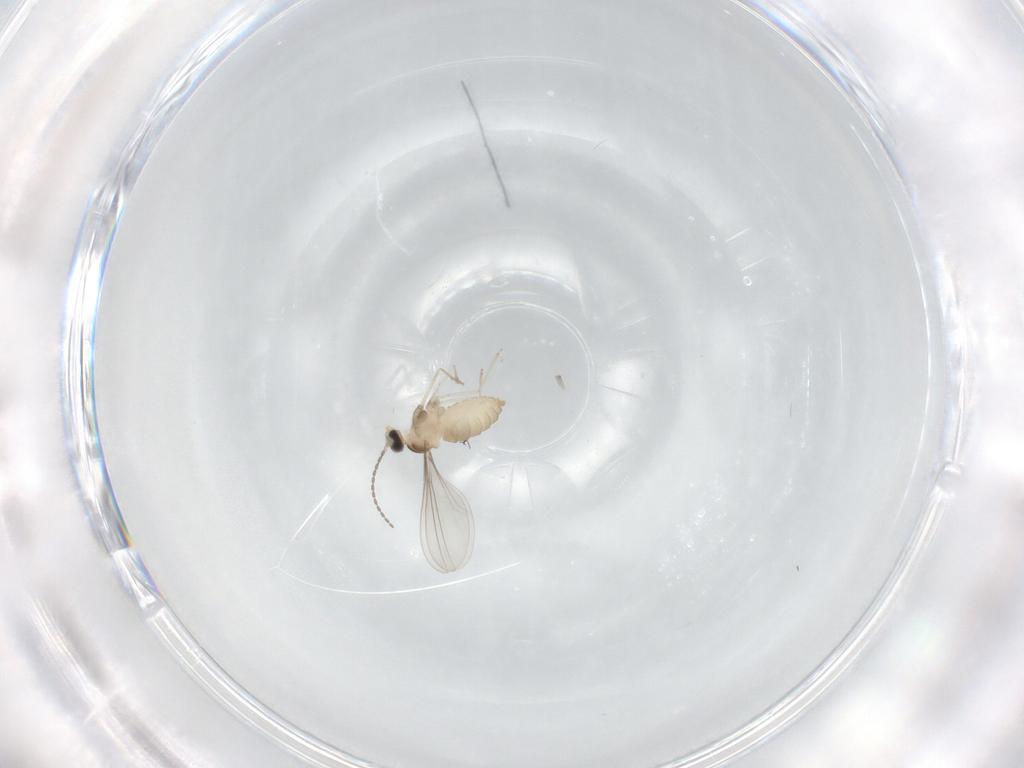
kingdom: Animalia
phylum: Arthropoda
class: Insecta
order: Diptera
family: Cecidomyiidae
